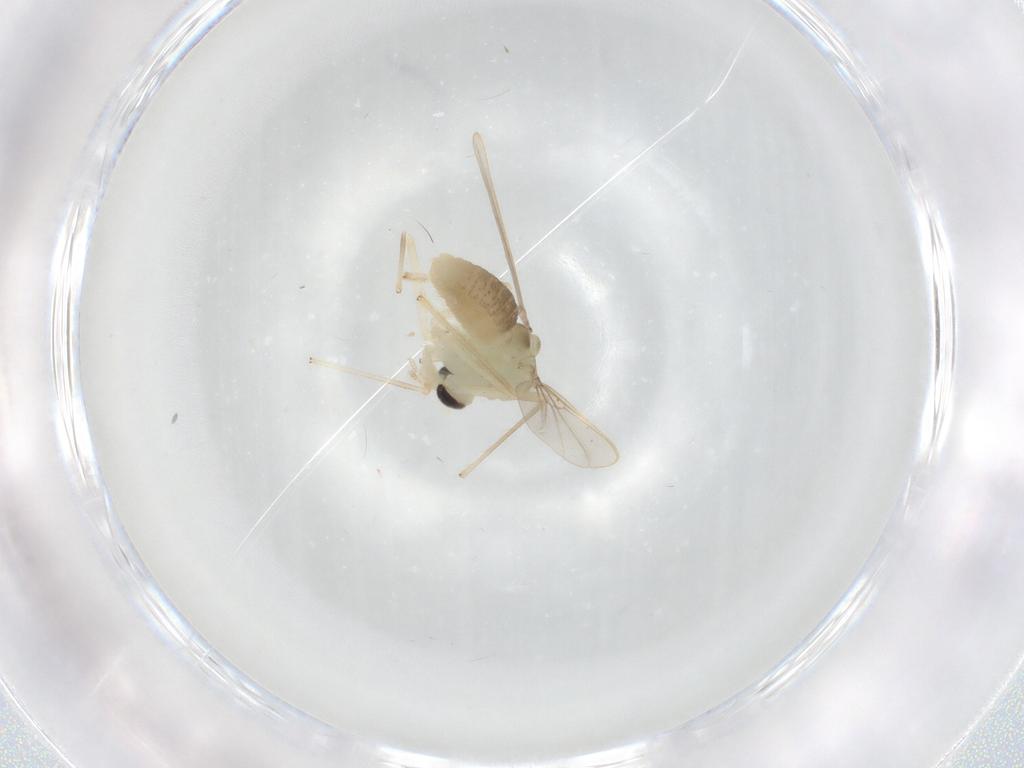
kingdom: Animalia
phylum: Arthropoda
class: Insecta
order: Diptera
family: Chironomidae
